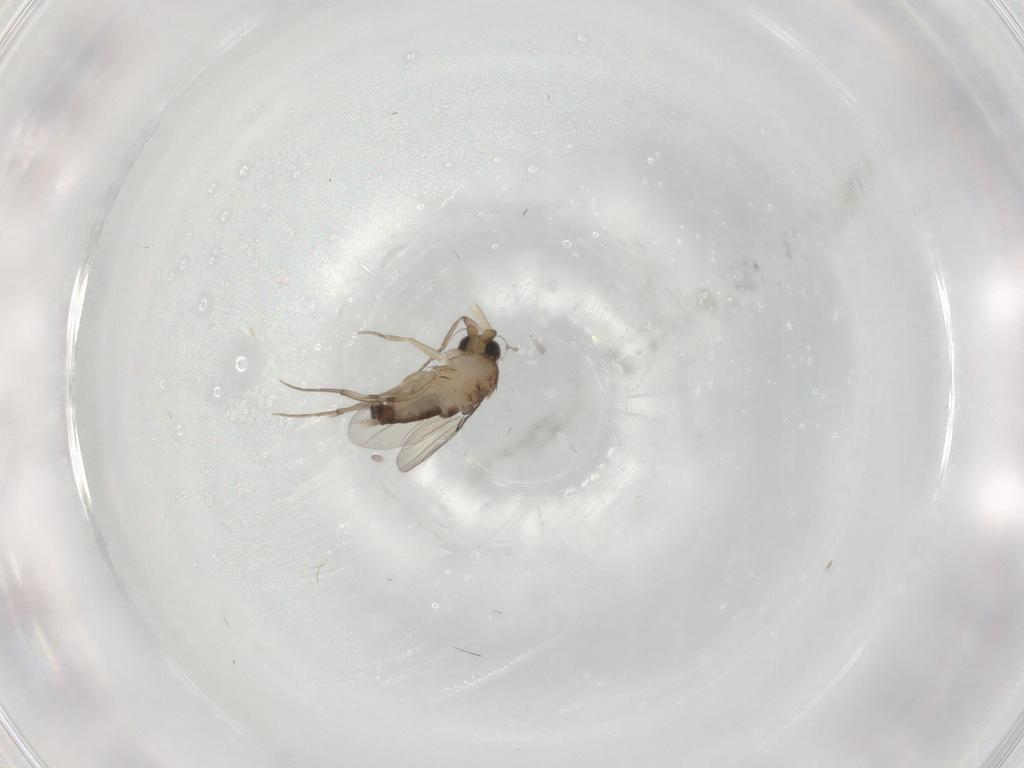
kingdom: Animalia
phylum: Arthropoda
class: Insecta
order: Diptera
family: Phoridae
